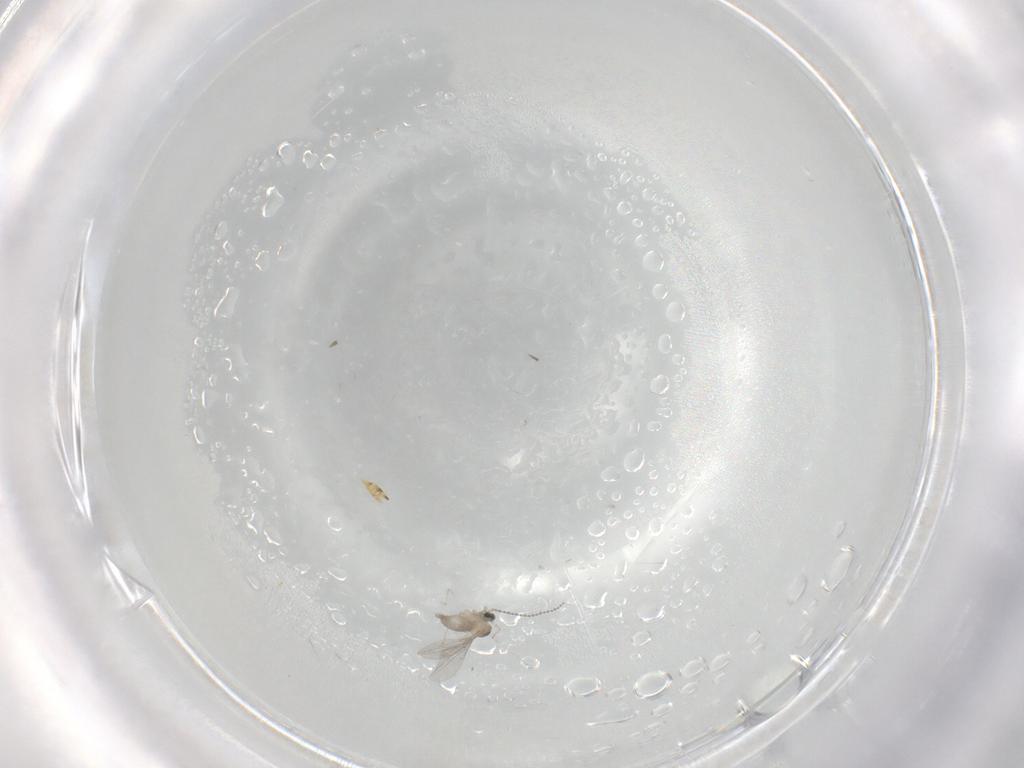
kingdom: Animalia
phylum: Arthropoda
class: Insecta
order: Diptera
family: Cecidomyiidae
